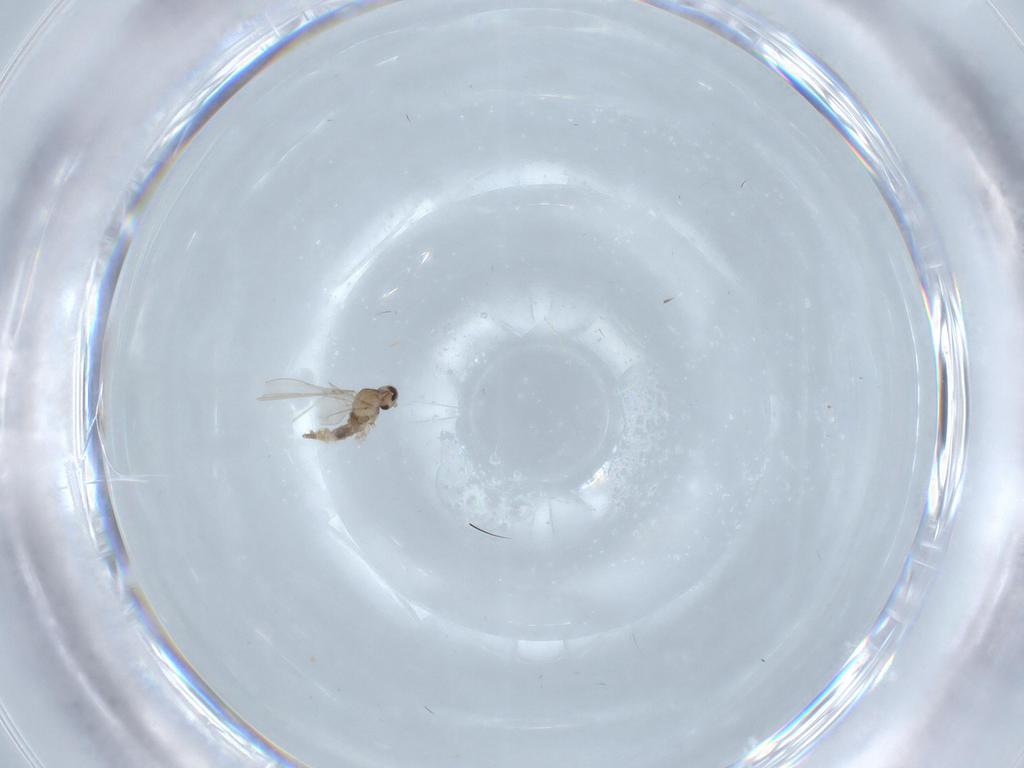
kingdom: Animalia
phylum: Arthropoda
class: Insecta
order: Diptera
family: Cecidomyiidae
